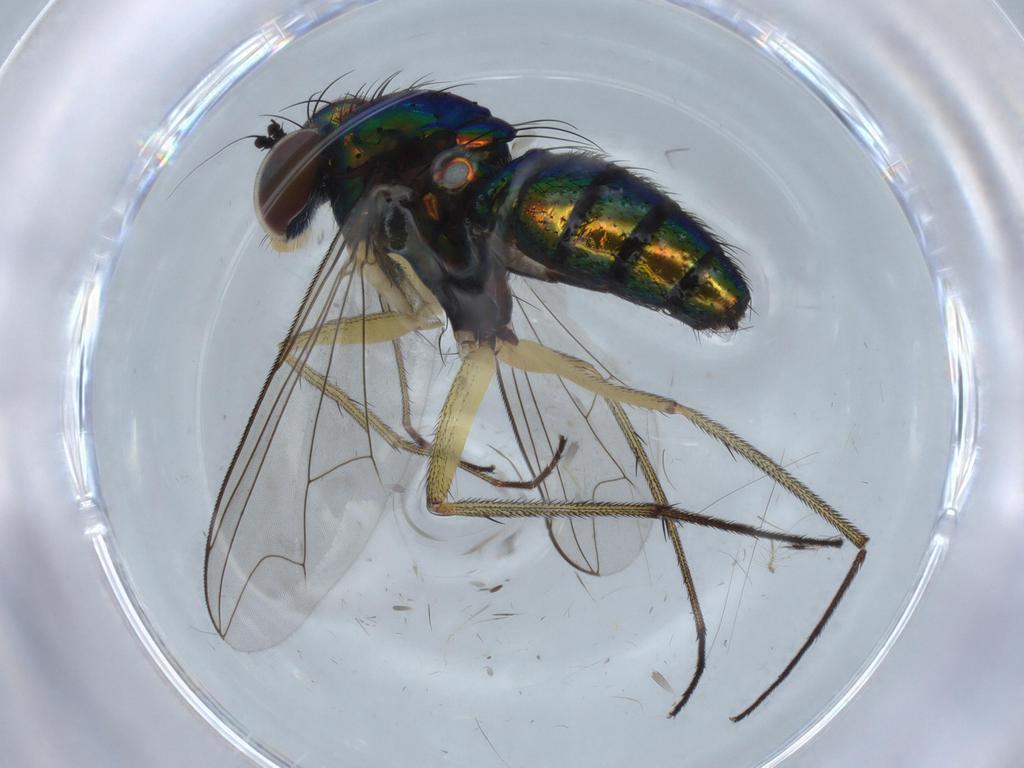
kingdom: Animalia
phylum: Arthropoda
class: Insecta
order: Diptera
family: Dolichopodidae
